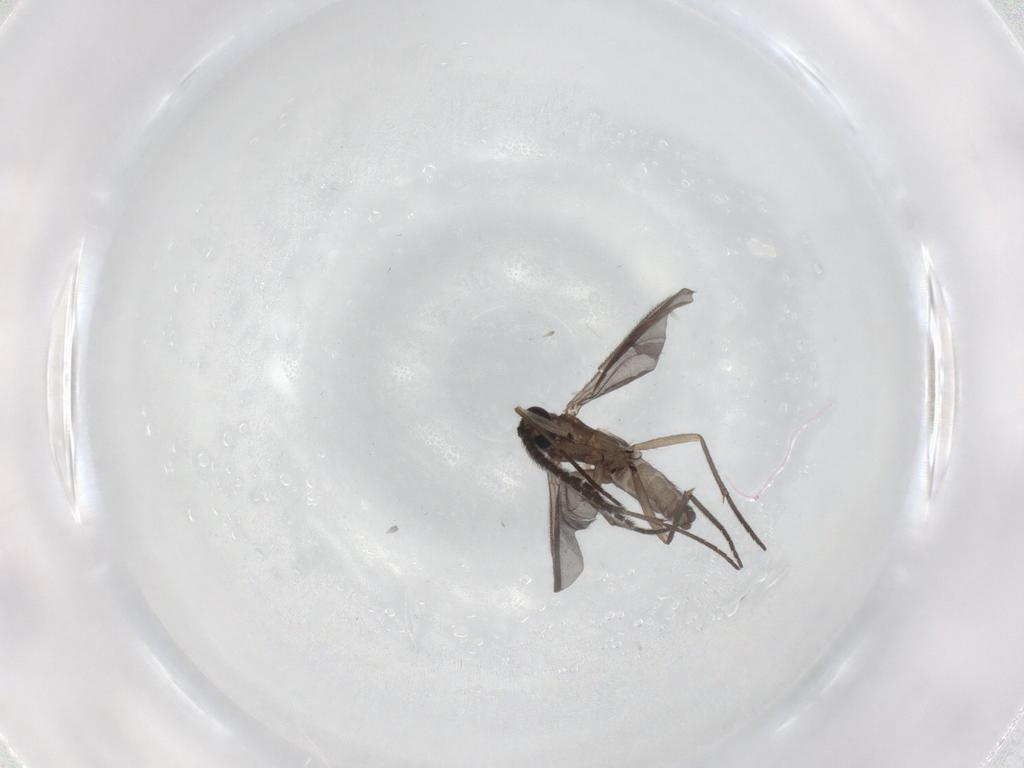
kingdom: Animalia
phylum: Arthropoda
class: Insecta
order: Diptera
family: Sciaridae
